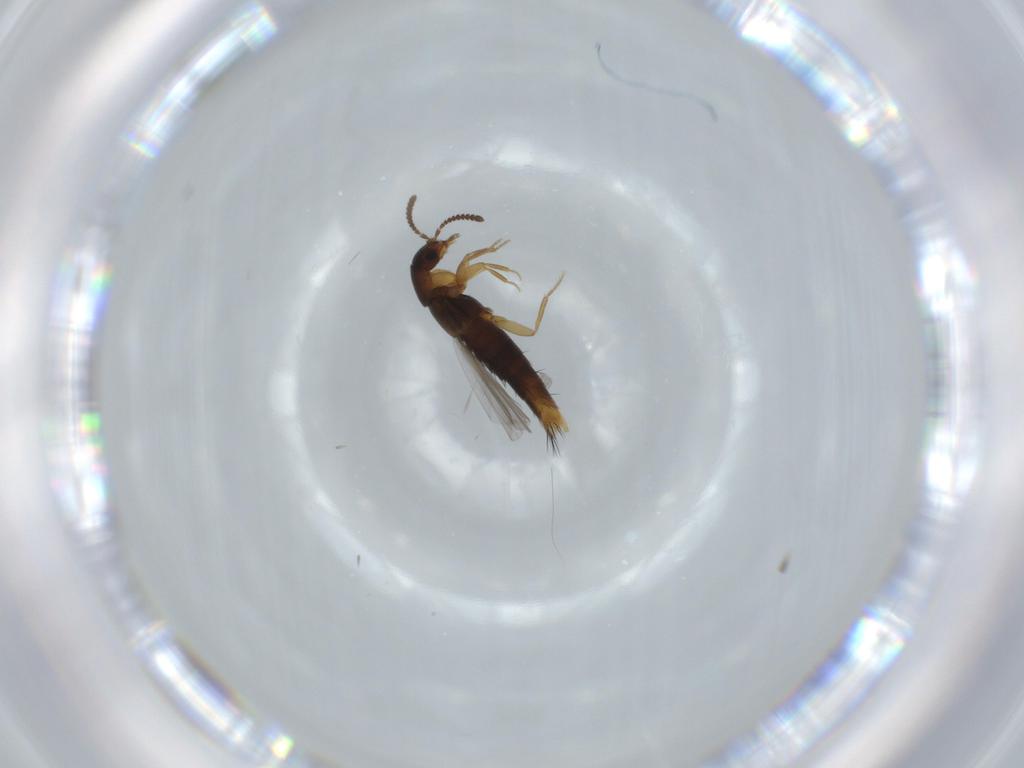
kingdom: Animalia
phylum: Arthropoda
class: Insecta
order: Coleoptera
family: Staphylinidae
